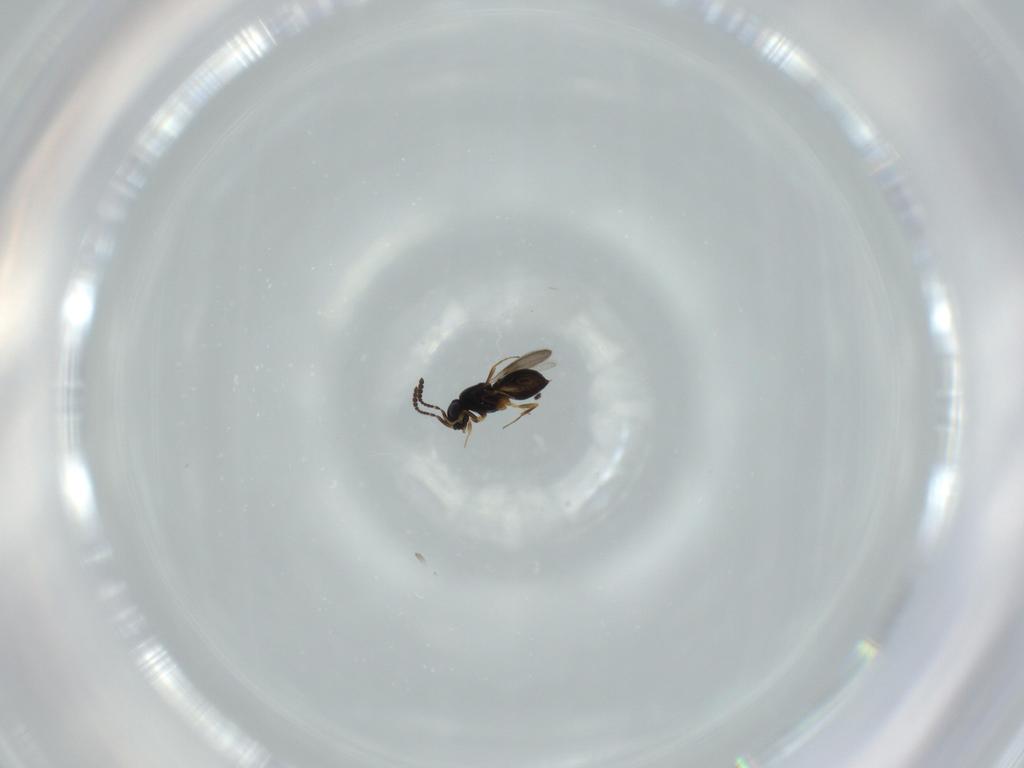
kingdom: Animalia
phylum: Arthropoda
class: Insecta
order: Hymenoptera
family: Scelionidae
